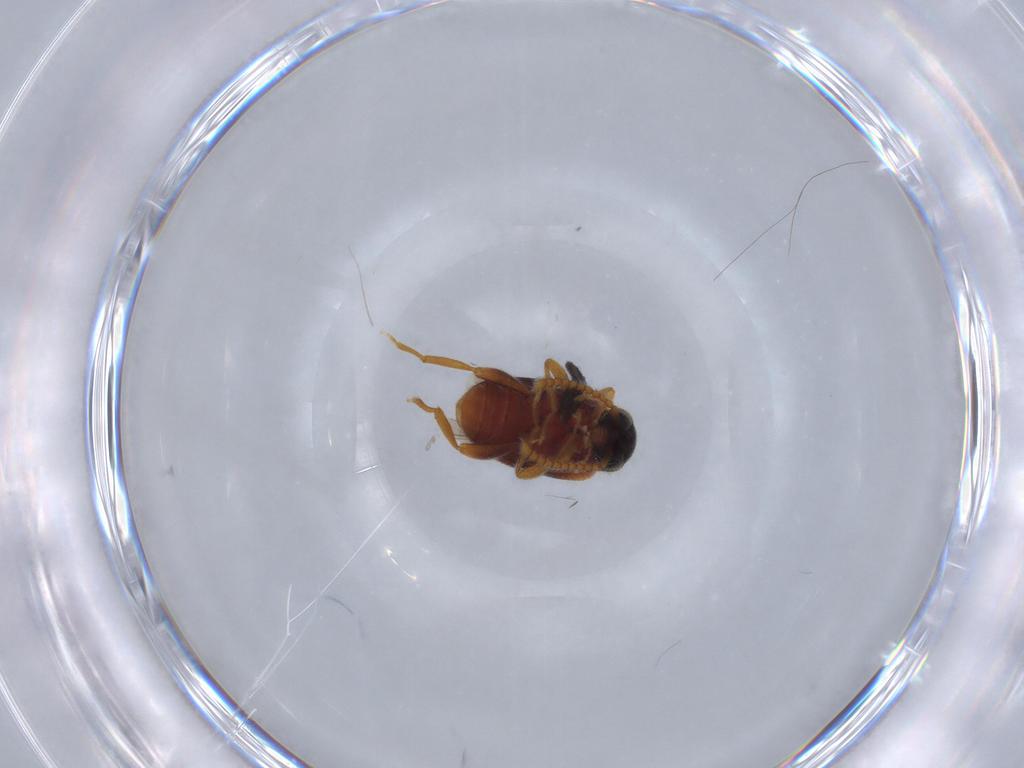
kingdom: Animalia
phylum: Arthropoda
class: Insecta
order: Coleoptera
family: Aderidae
